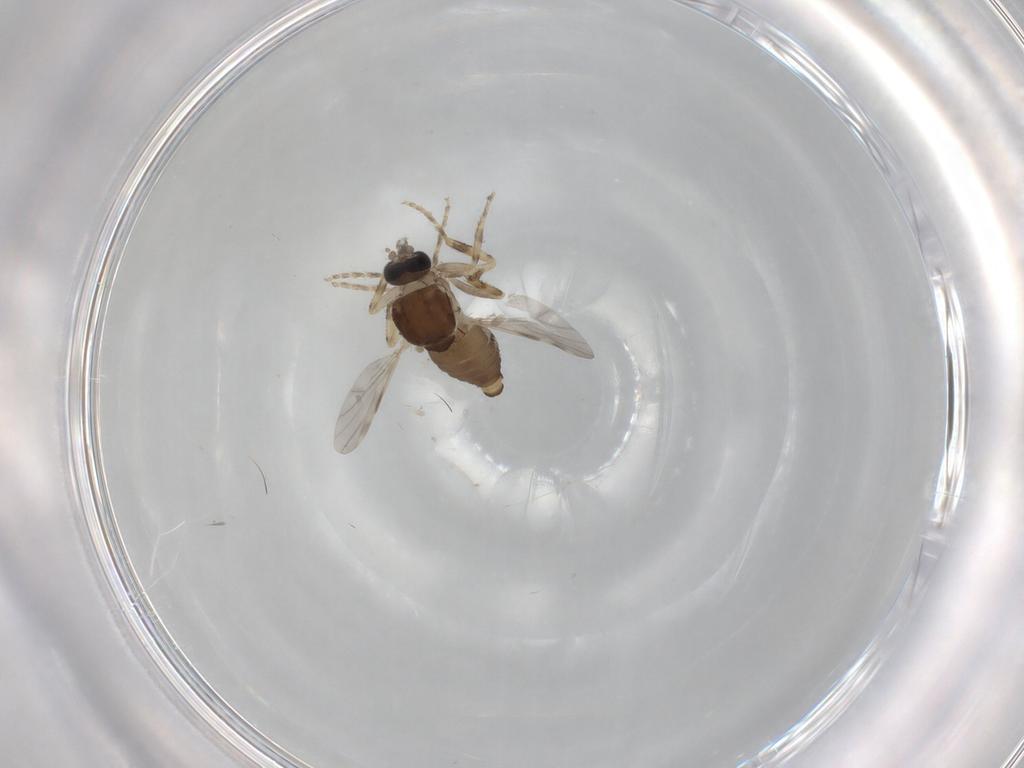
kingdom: Animalia
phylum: Arthropoda
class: Insecta
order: Diptera
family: Ceratopogonidae
